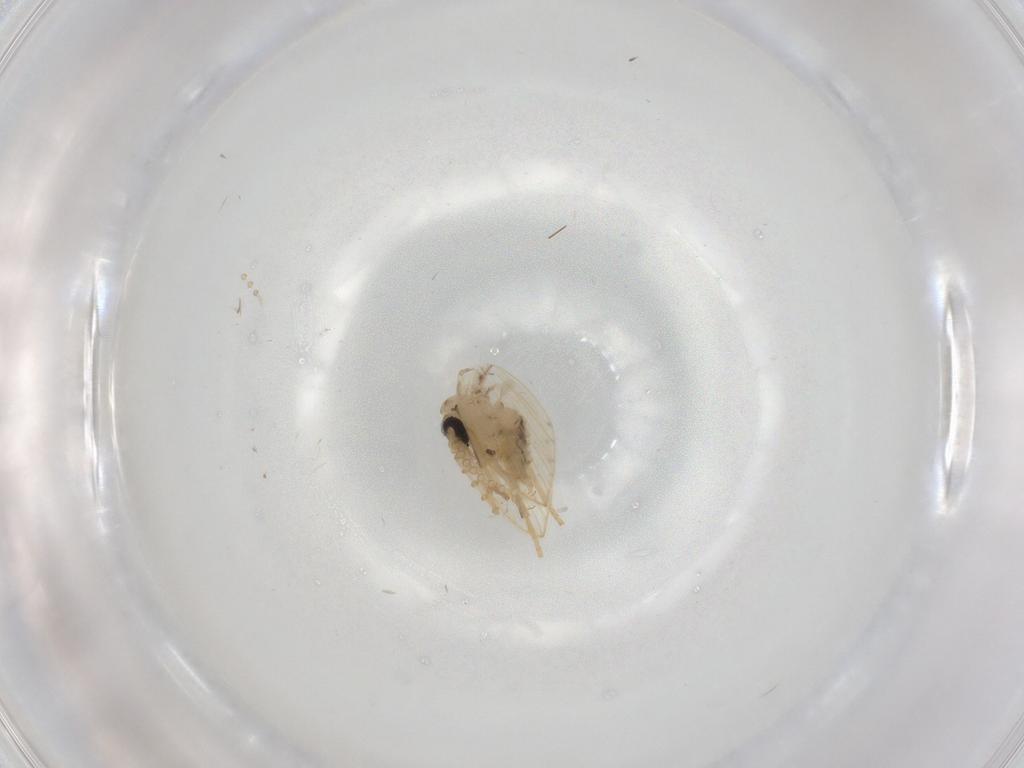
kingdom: Animalia
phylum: Arthropoda
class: Insecta
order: Diptera
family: Psychodidae
